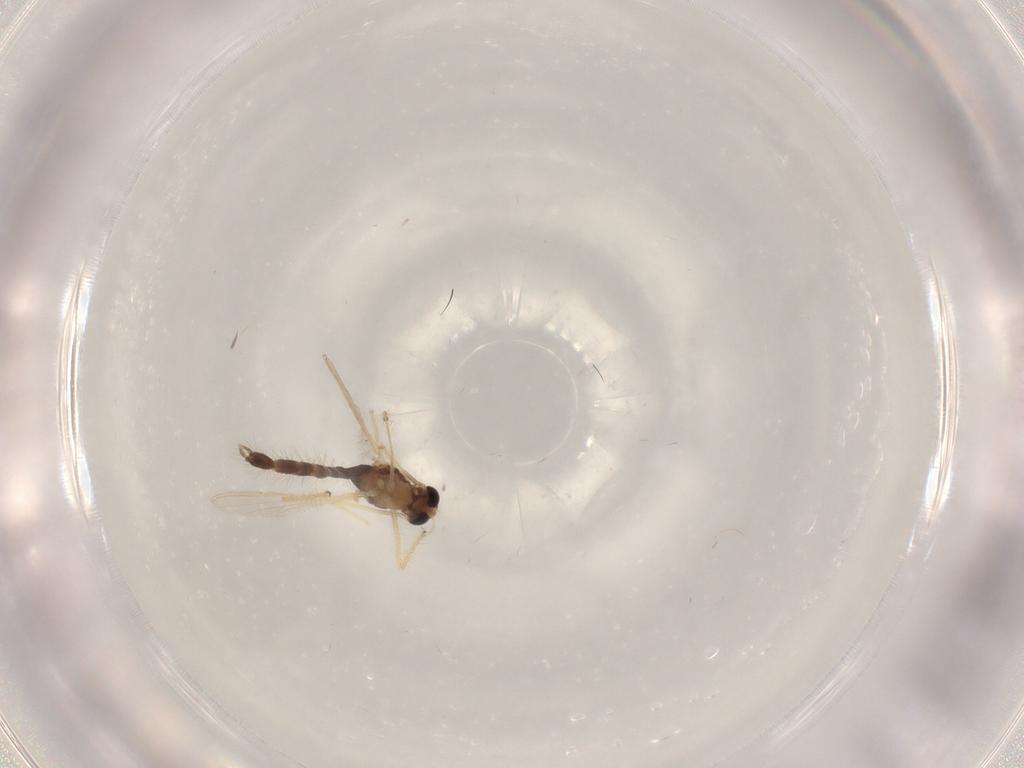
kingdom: Animalia
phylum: Arthropoda
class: Insecta
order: Diptera
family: Chironomidae
